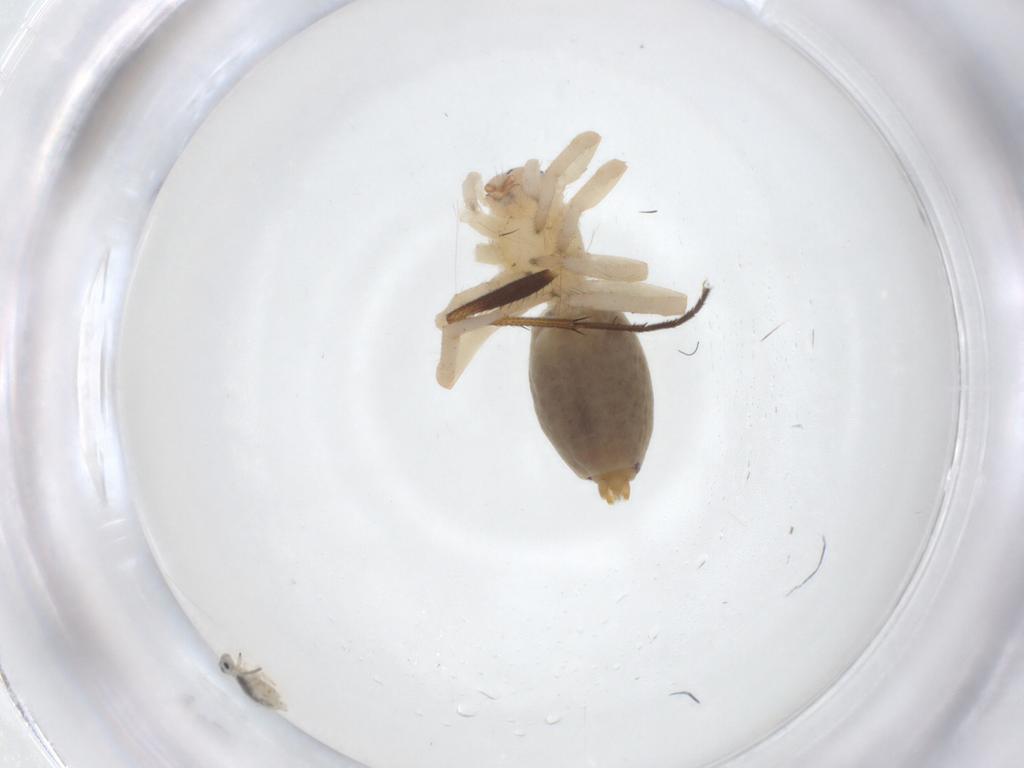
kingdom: Animalia
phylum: Arthropoda
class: Arachnida
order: Araneae
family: Clubionidae
